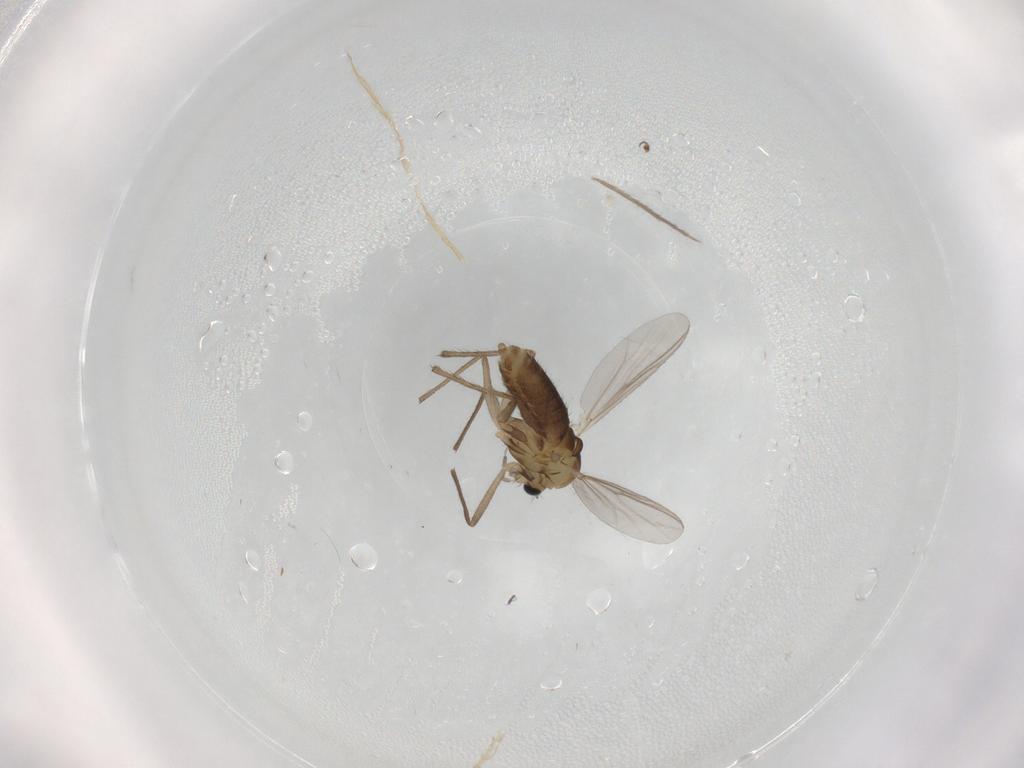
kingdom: Animalia
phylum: Arthropoda
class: Insecta
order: Diptera
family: Chironomidae
